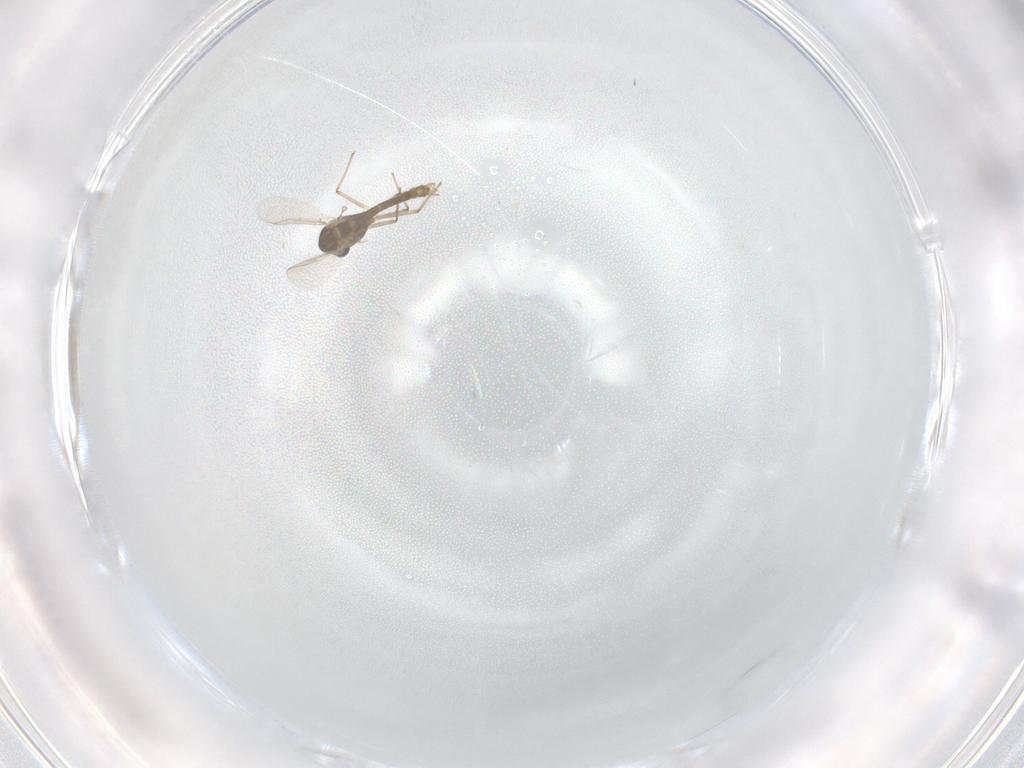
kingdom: Animalia
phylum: Arthropoda
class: Insecta
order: Diptera
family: Chironomidae
